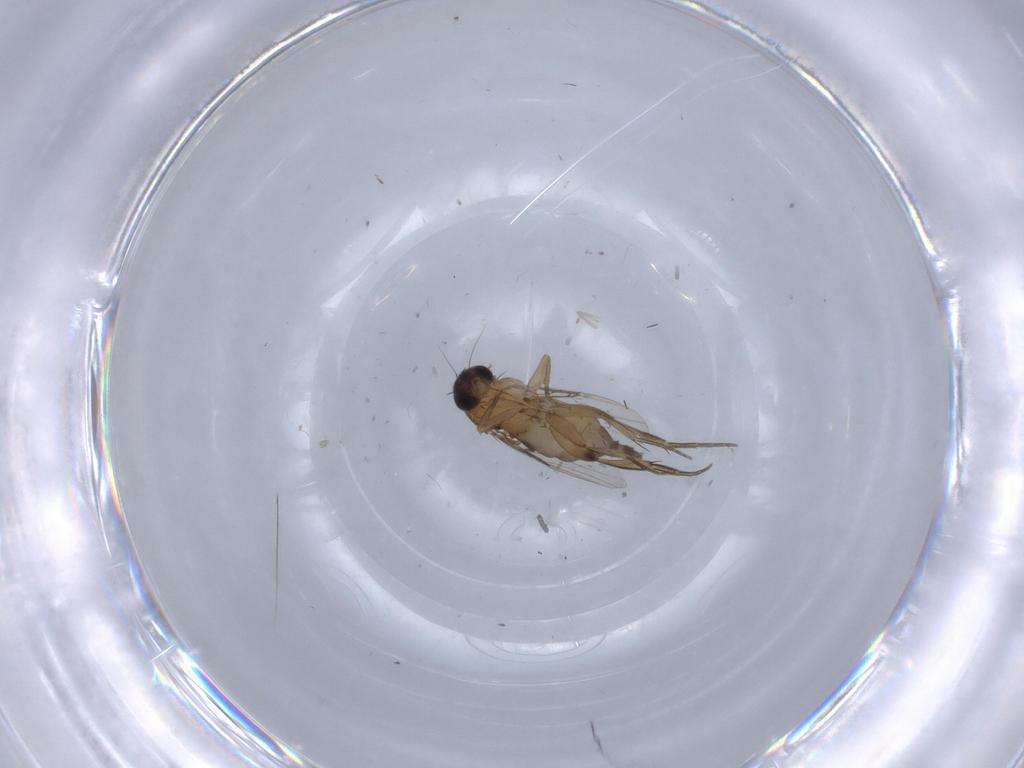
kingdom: Animalia
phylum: Arthropoda
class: Insecta
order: Diptera
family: Phoridae
